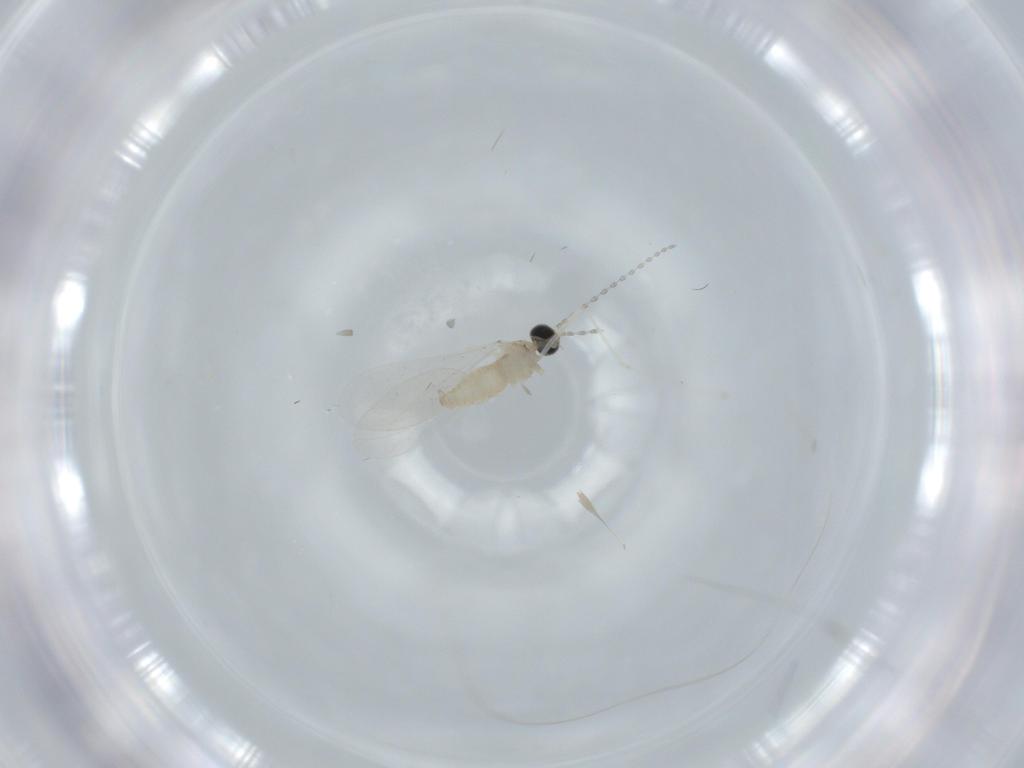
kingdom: Animalia
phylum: Arthropoda
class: Insecta
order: Diptera
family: Cecidomyiidae
